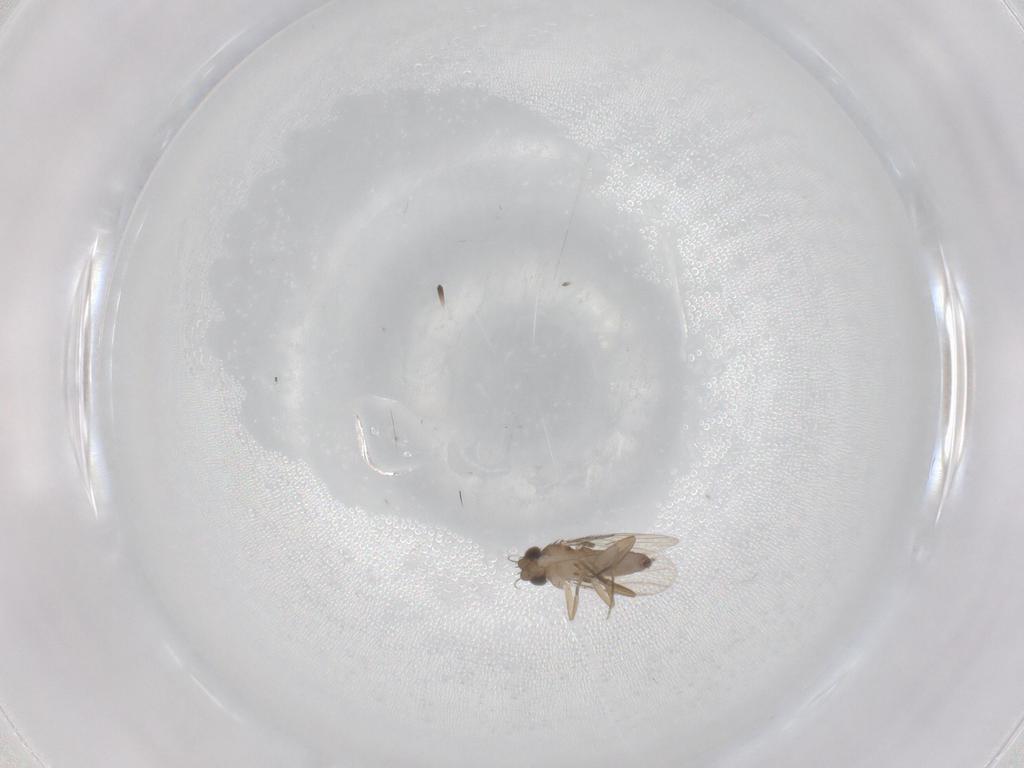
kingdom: Animalia
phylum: Arthropoda
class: Insecta
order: Diptera
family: Phoridae
